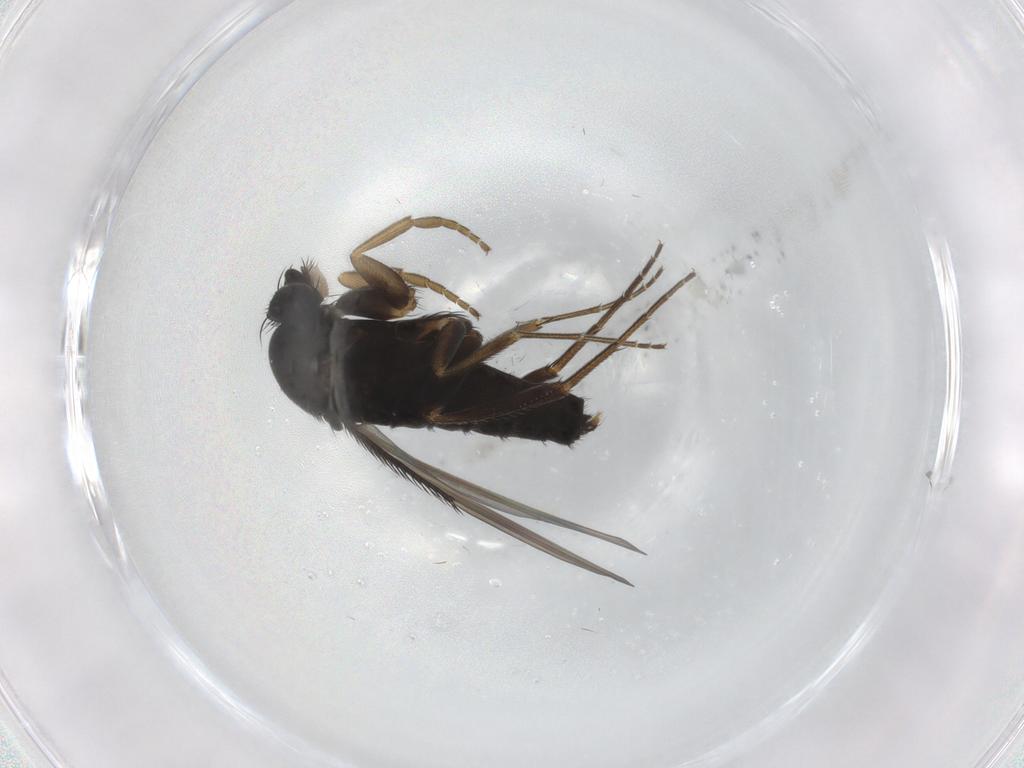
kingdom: Animalia
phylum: Arthropoda
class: Insecta
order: Diptera
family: Phoridae
